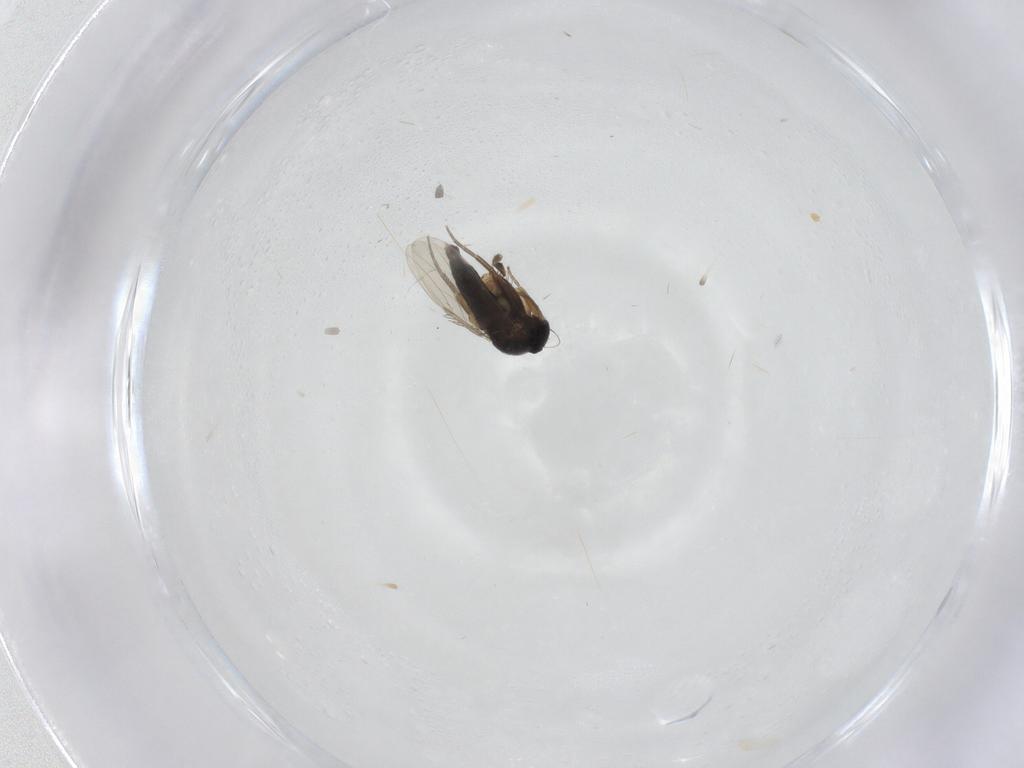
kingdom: Animalia
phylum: Arthropoda
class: Insecta
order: Diptera
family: Phoridae
